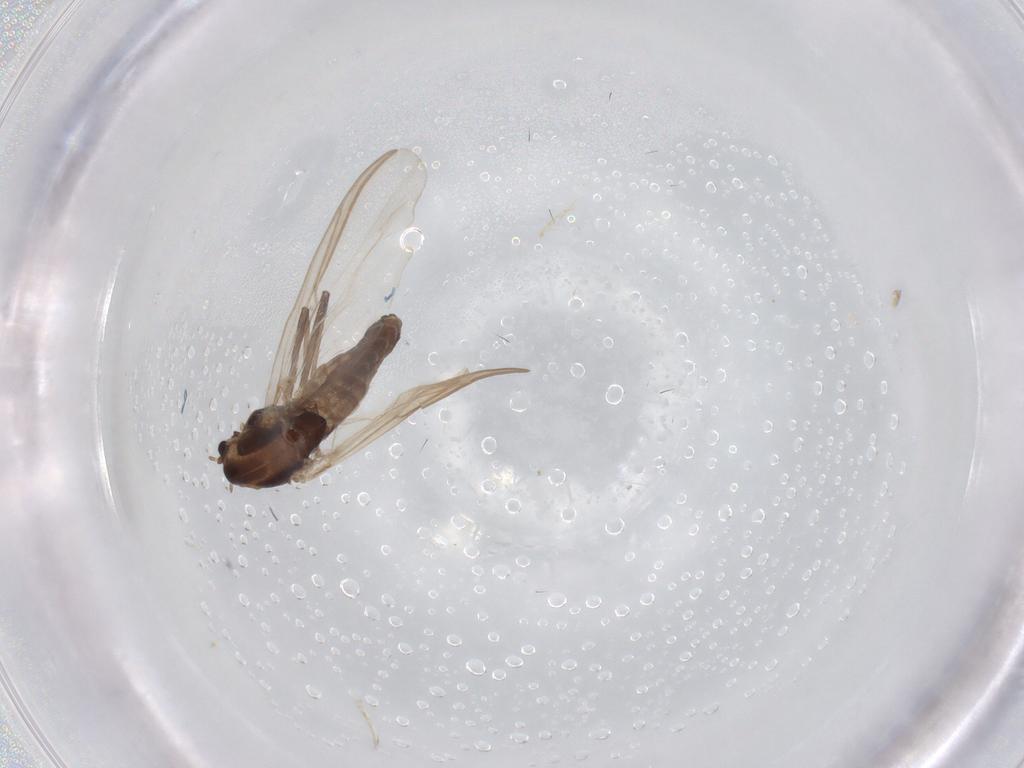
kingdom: Animalia
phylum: Arthropoda
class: Insecta
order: Diptera
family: Chironomidae
